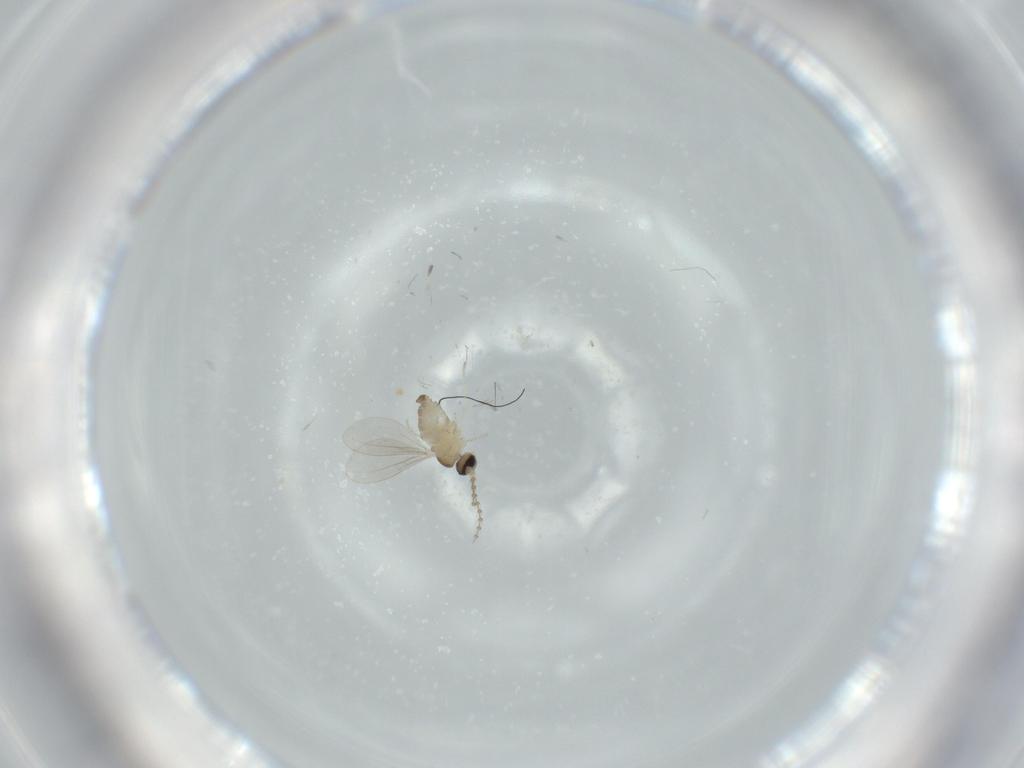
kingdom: Animalia
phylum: Arthropoda
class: Insecta
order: Diptera
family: Cecidomyiidae
